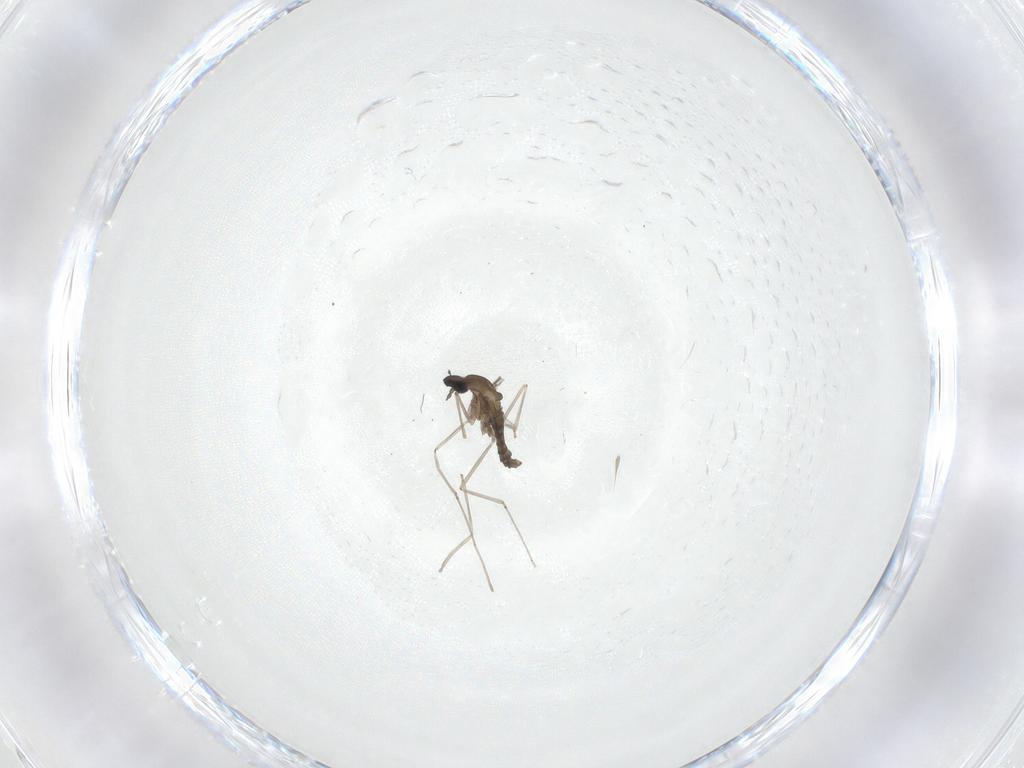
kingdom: Animalia
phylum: Arthropoda
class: Insecta
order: Diptera
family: Cecidomyiidae
